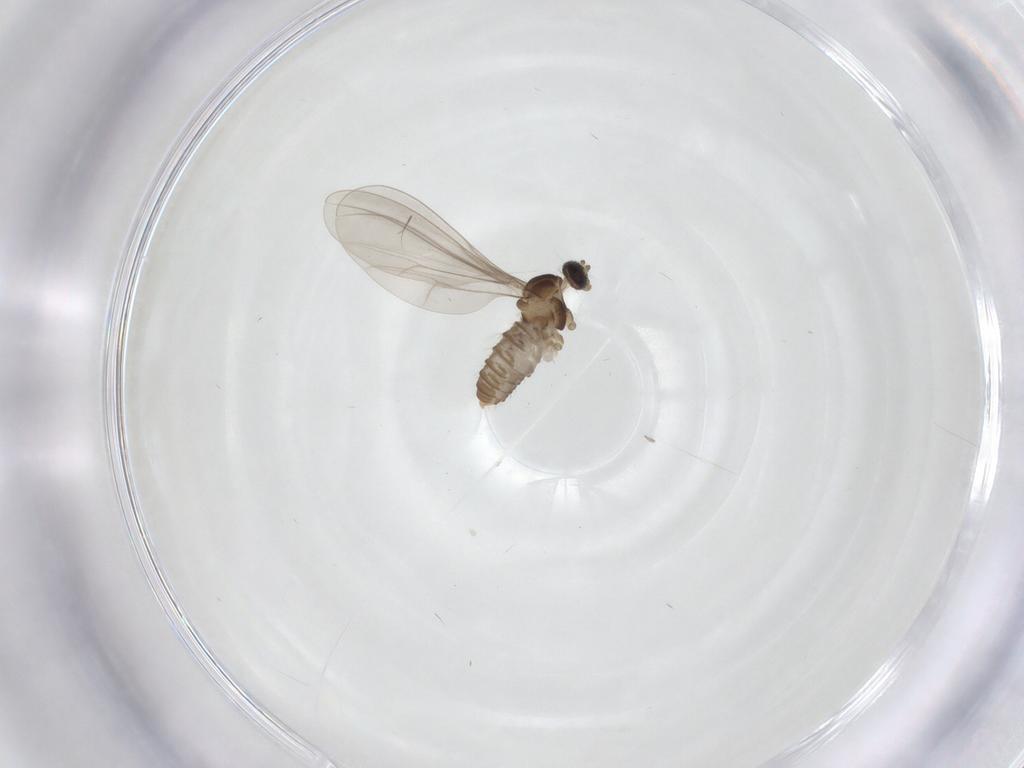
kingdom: Animalia
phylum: Arthropoda
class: Insecta
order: Diptera
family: Cecidomyiidae
